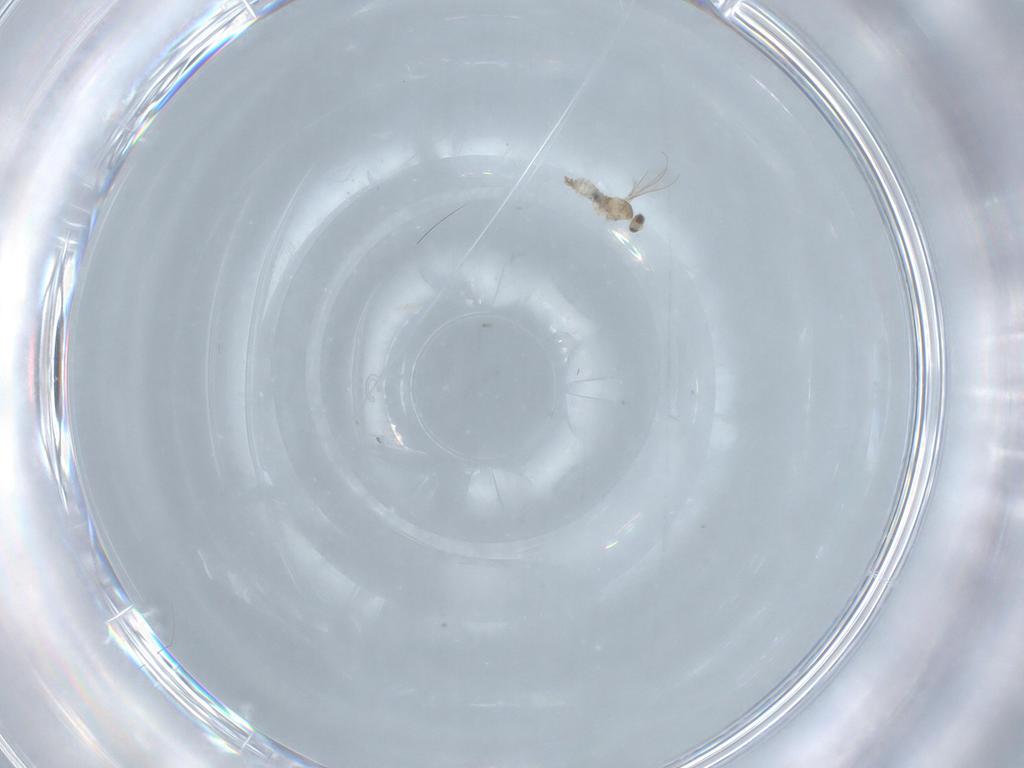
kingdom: Animalia
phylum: Arthropoda
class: Insecta
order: Diptera
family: Cecidomyiidae
